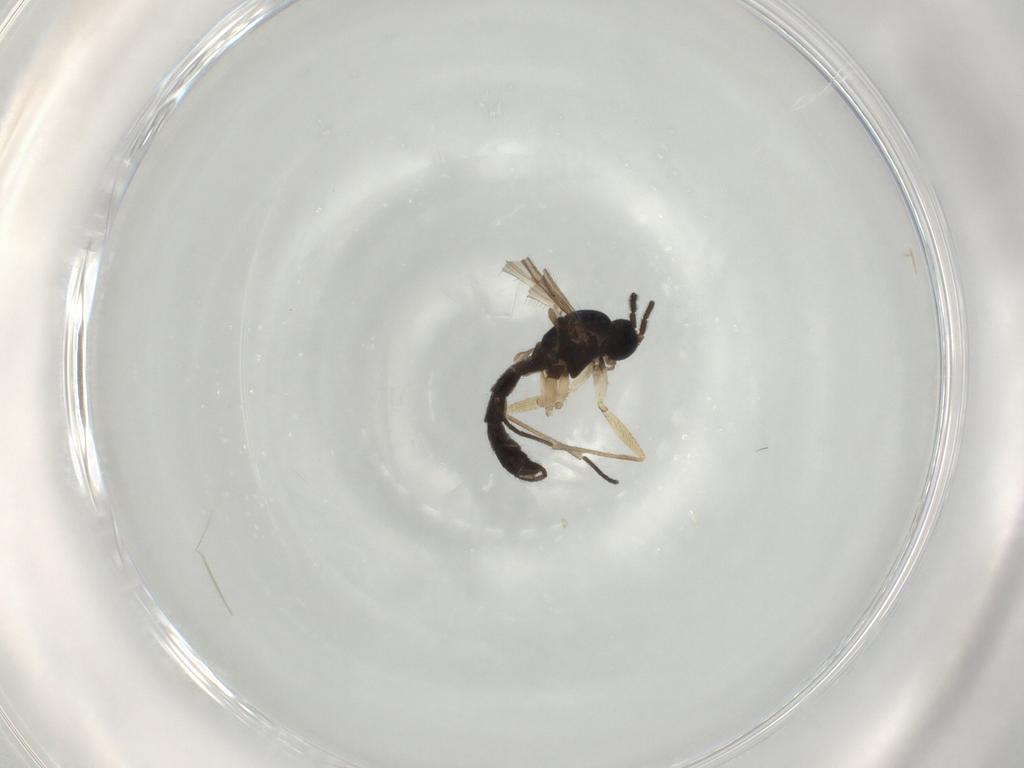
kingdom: Animalia
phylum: Arthropoda
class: Insecta
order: Diptera
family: Sciaridae
